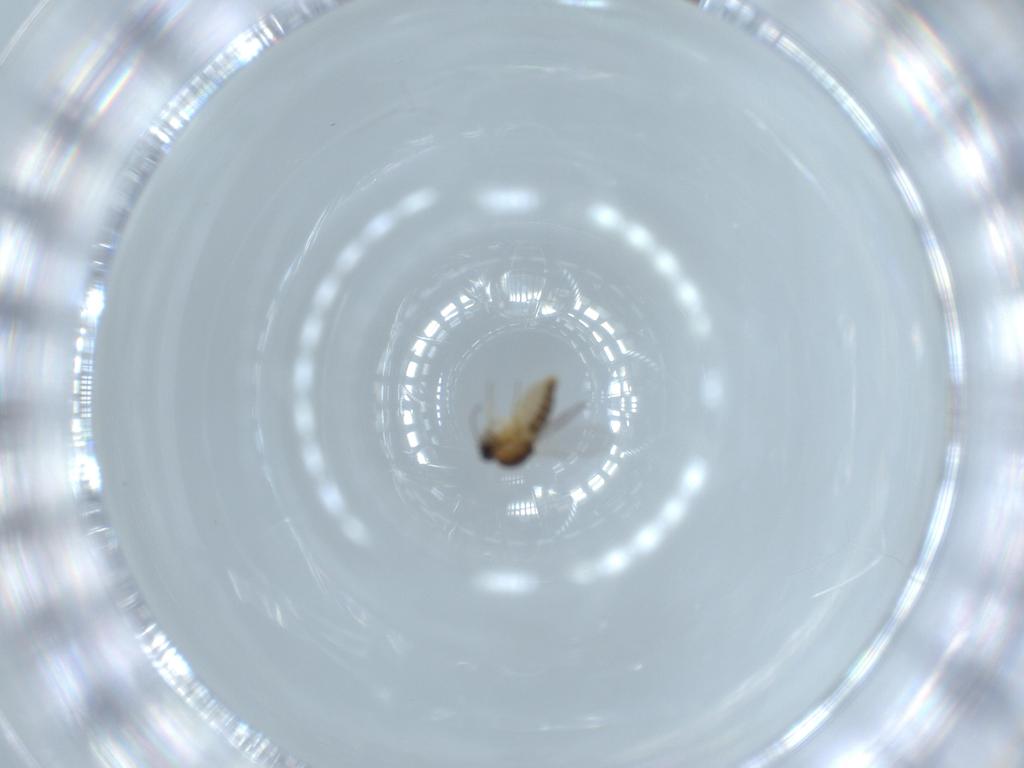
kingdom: Animalia
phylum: Arthropoda
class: Insecta
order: Diptera
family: Ceratopogonidae
